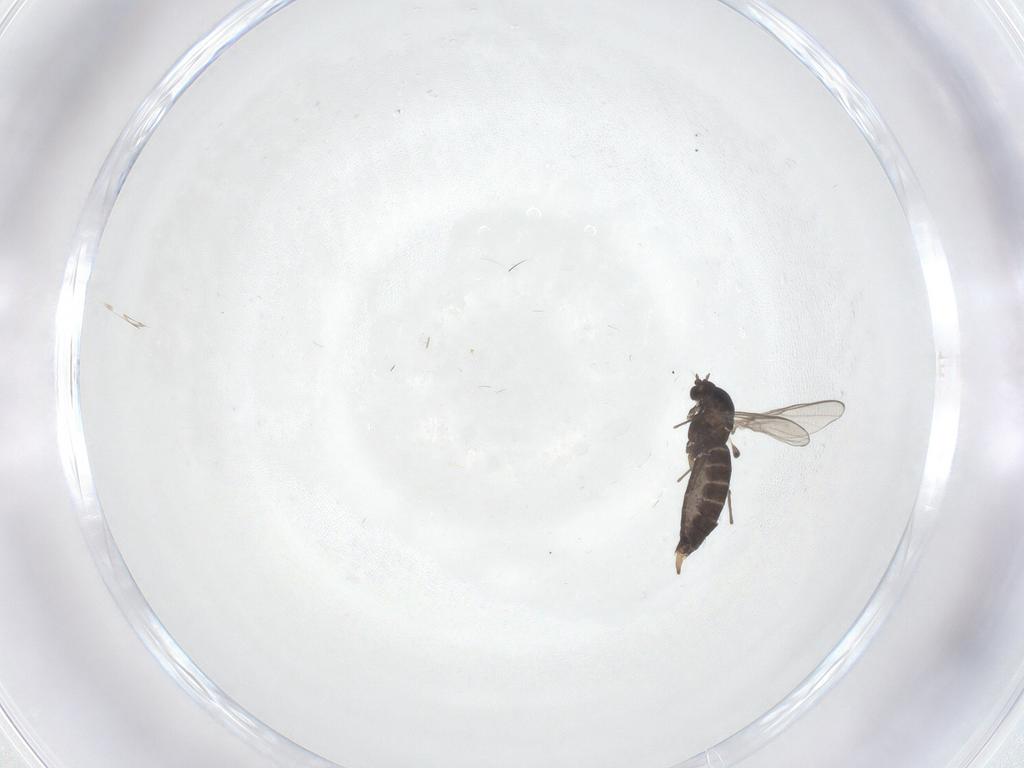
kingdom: Animalia
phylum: Arthropoda
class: Insecta
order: Diptera
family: Chironomidae
